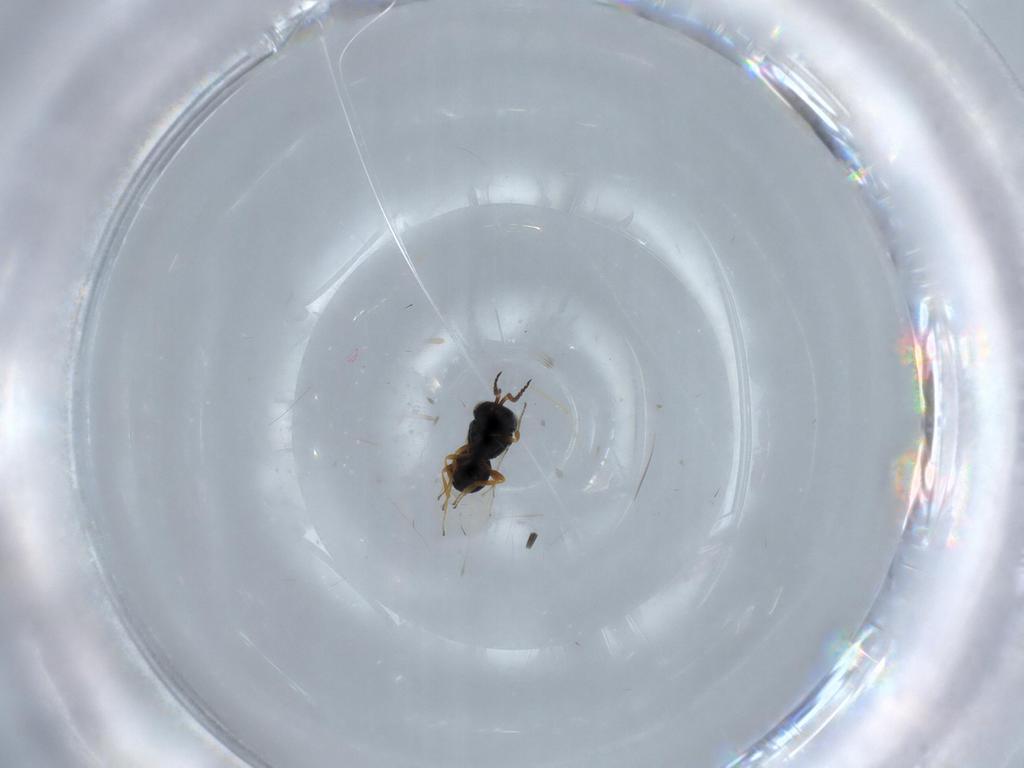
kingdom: Animalia
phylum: Arthropoda
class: Insecta
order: Hymenoptera
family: Scelionidae
